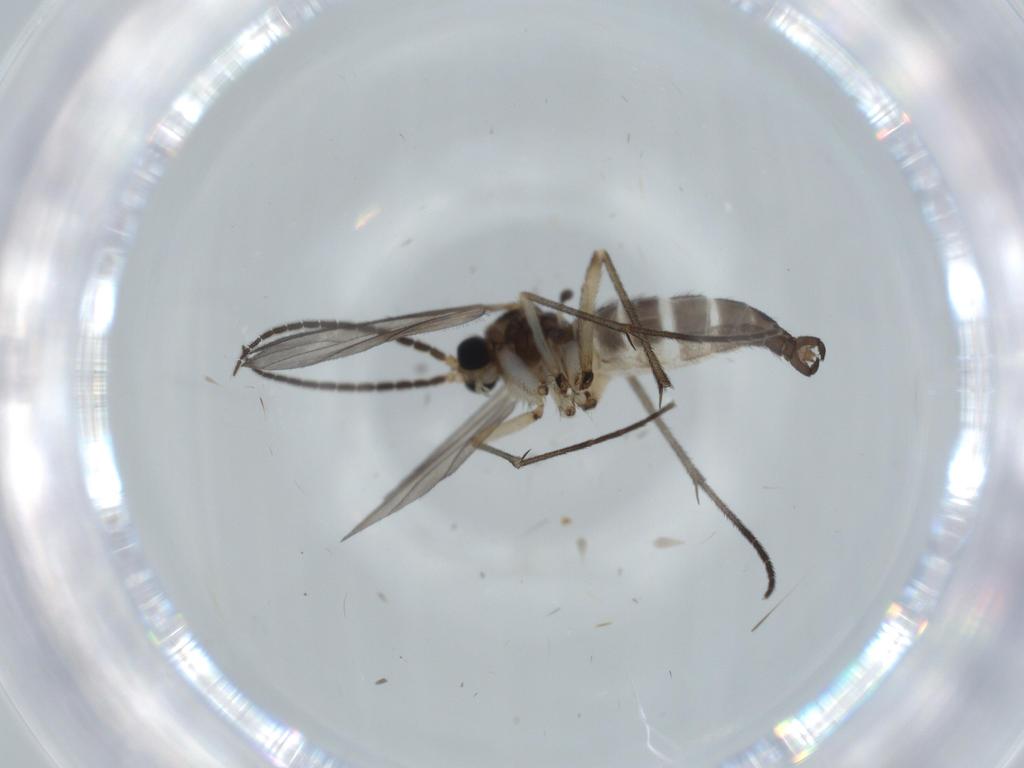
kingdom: Animalia
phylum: Arthropoda
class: Insecta
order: Diptera
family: Sciaridae
